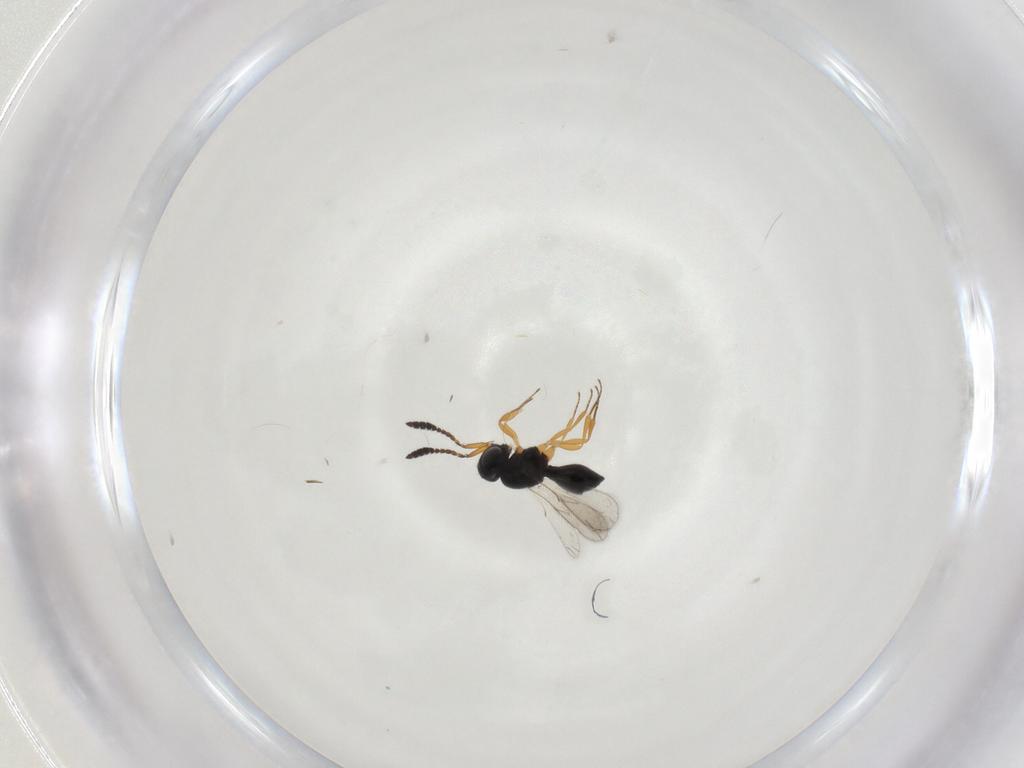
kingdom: Animalia
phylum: Arthropoda
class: Insecta
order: Hymenoptera
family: Scelionidae
